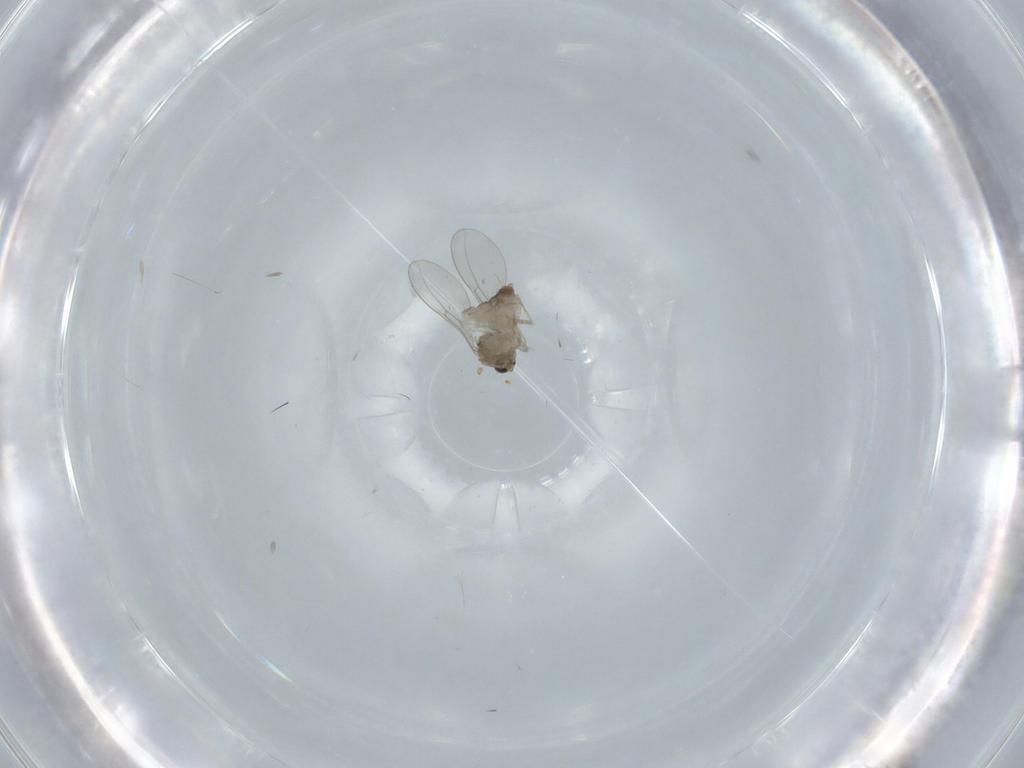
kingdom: Animalia
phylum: Arthropoda
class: Insecta
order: Diptera
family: Cecidomyiidae
